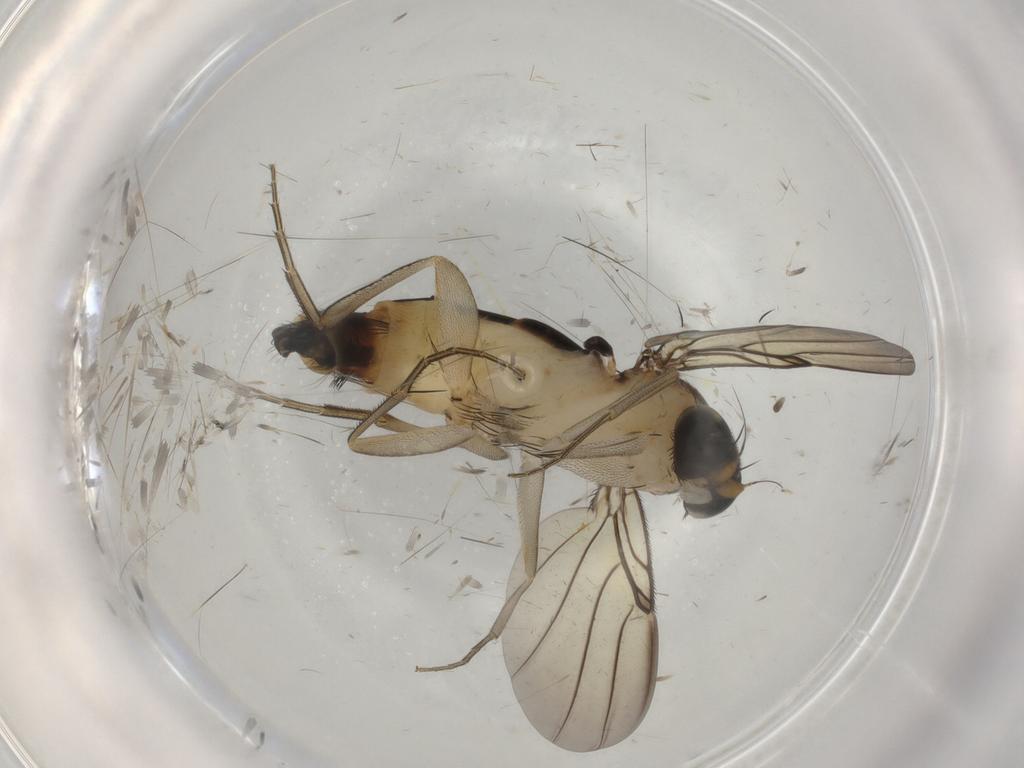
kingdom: Animalia
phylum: Arthropoda
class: Insecta
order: Diptera
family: Phoridae
